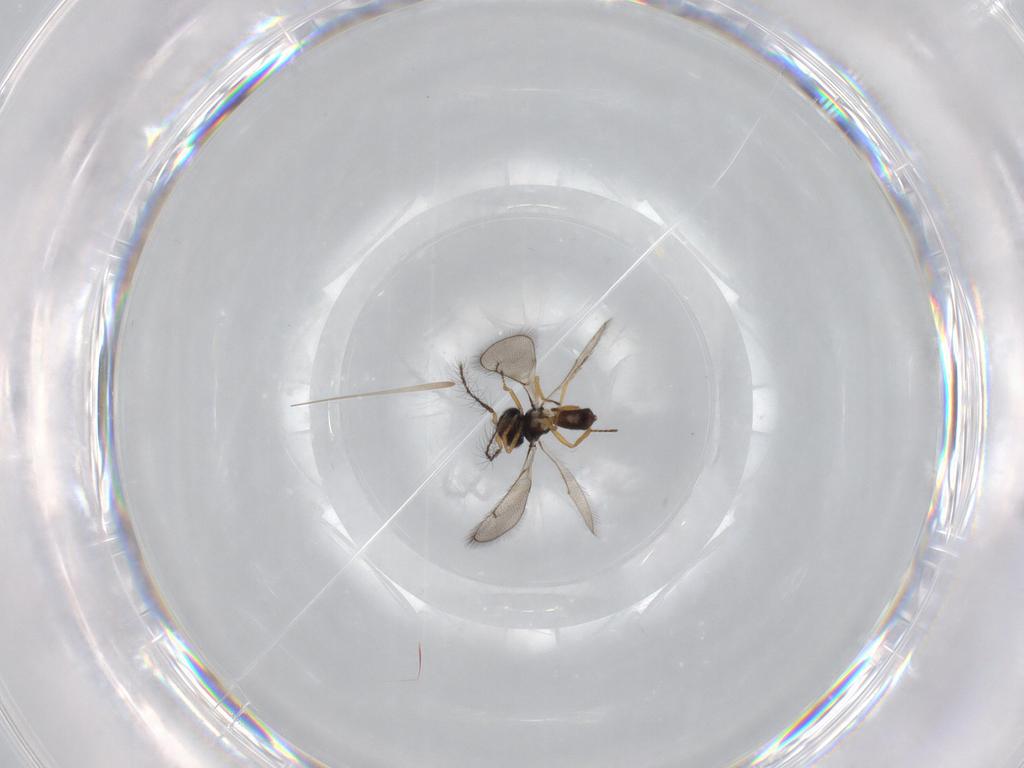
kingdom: Animalia
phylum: Arthropoda
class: Insecta
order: Hymenoptera
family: Eulophidae
